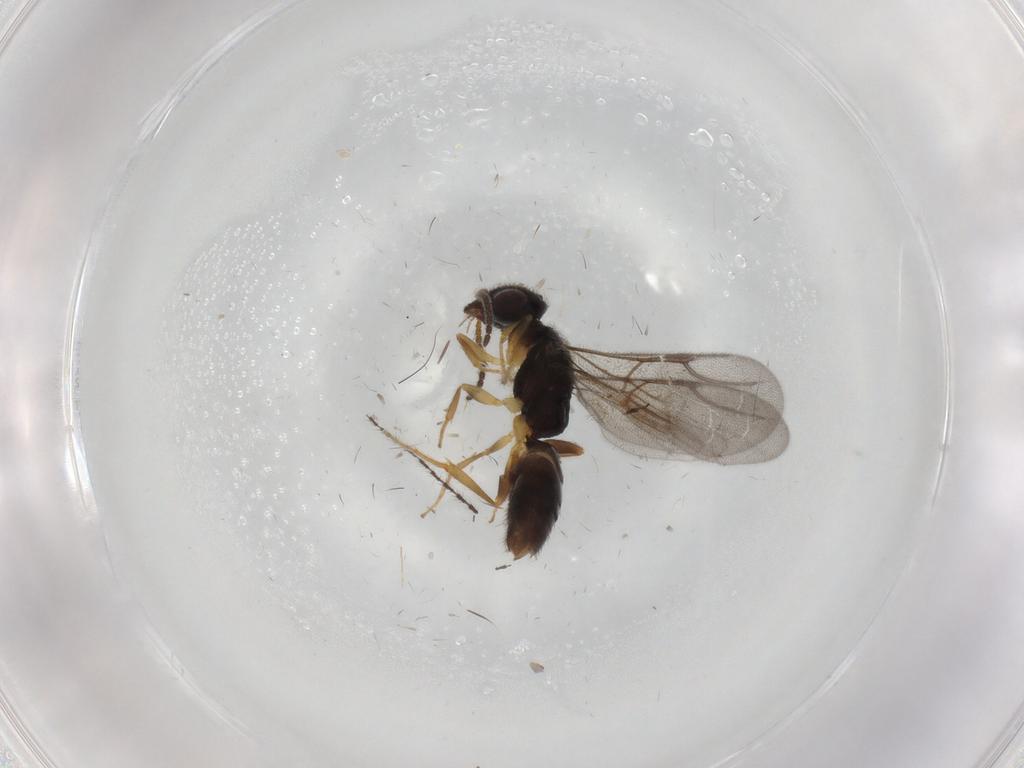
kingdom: Animalia
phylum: Arthropoda
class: Insecta
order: Hymenoptera
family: Bethylidae
